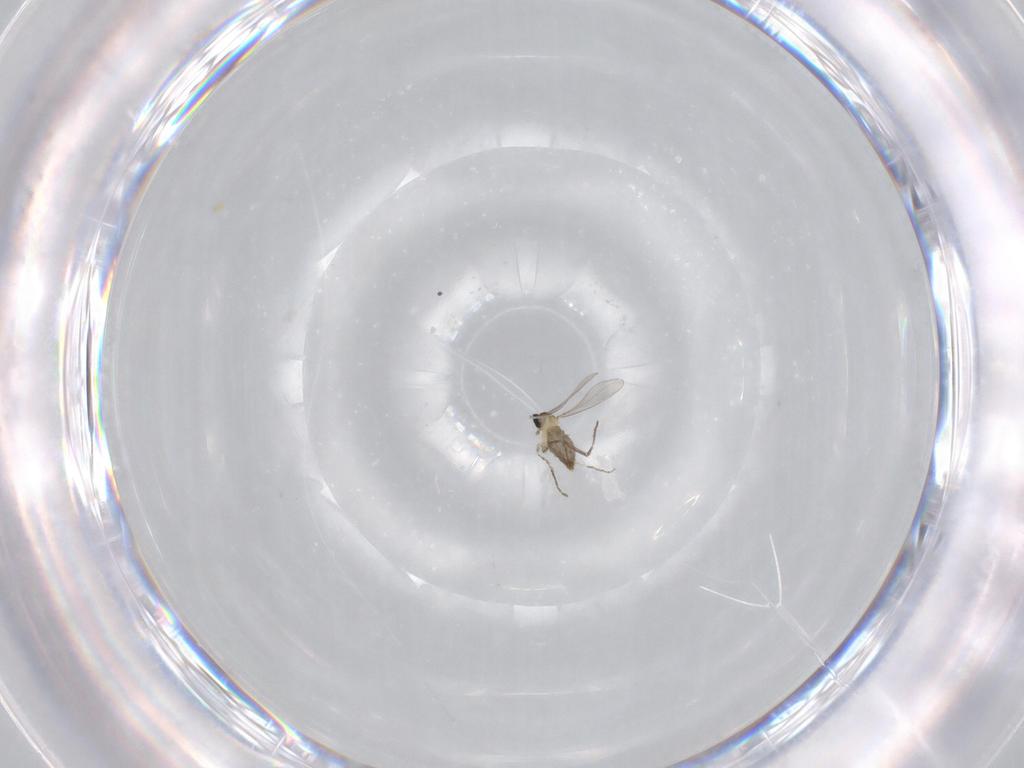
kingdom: Animalia
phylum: Arthropoda
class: Insecta
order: Diptera
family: Cecidomyiidae
